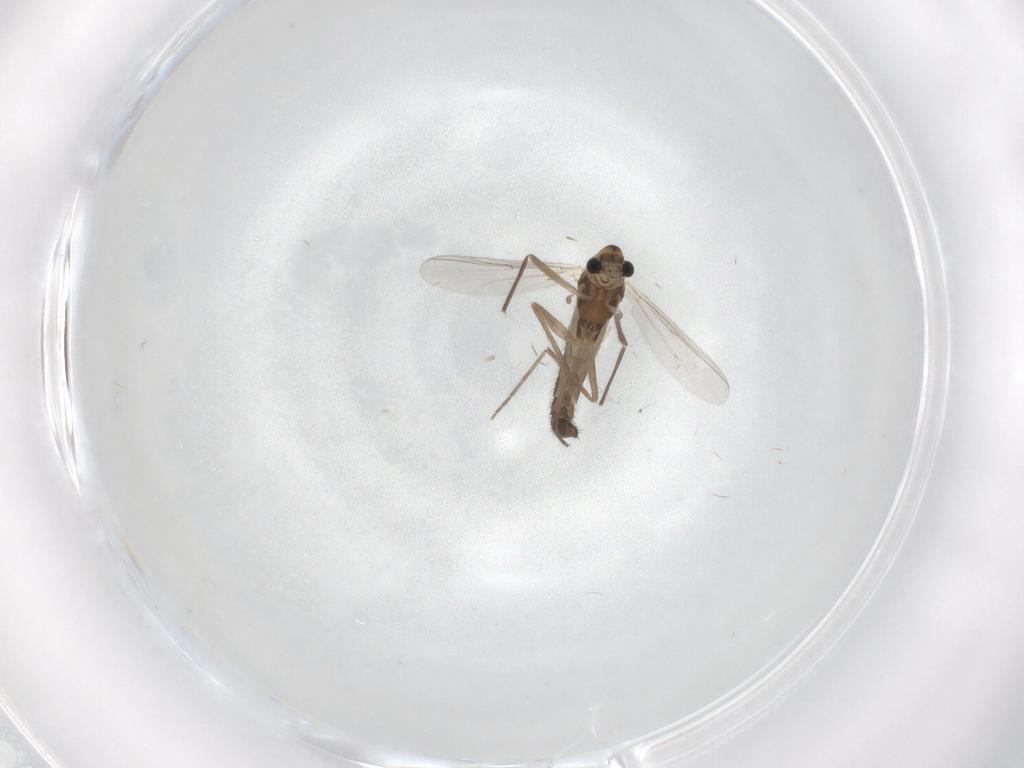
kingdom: Animalia
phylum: Arthropoda
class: Insecta
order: Diptera
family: Chironomidae
